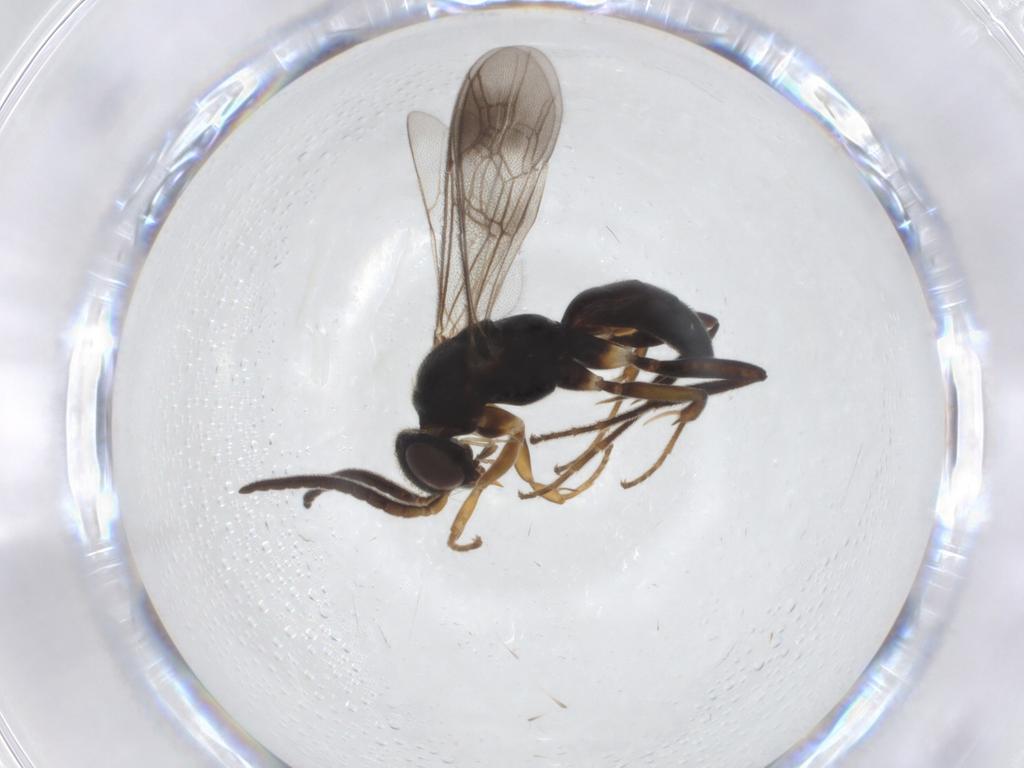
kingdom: Animalia
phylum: Arthropoda
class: Insecta
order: Hymenoptera
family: Pompilidae
